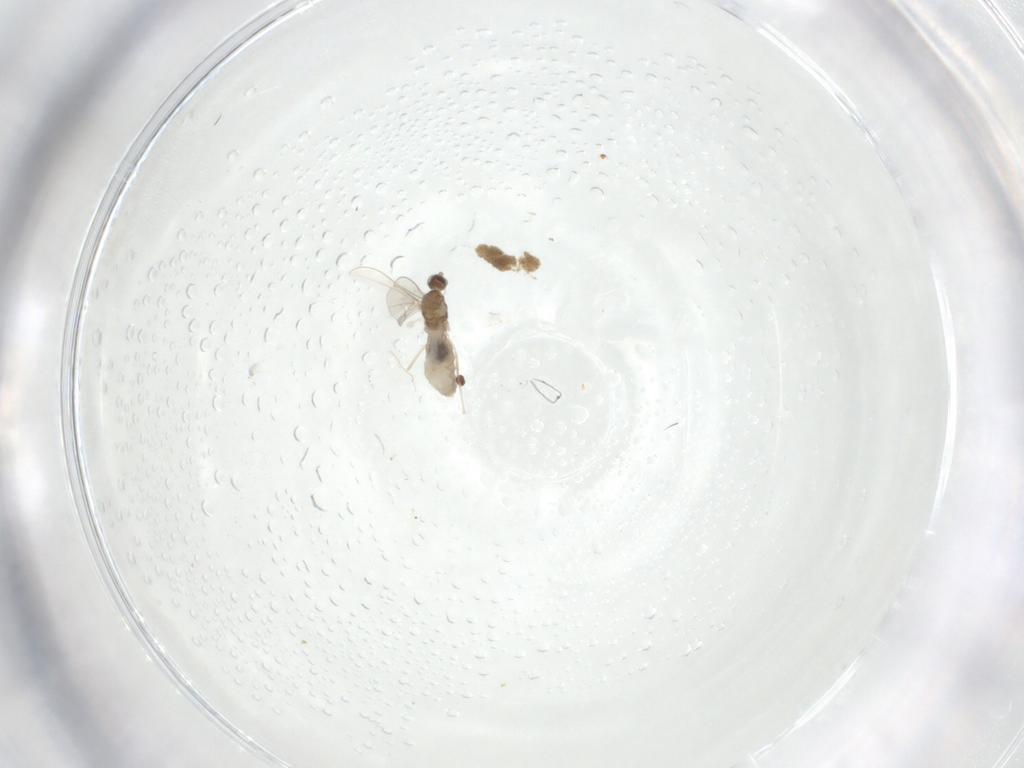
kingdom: Animalia
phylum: Arthropoda
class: Insecta
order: Diptera
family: Cecidomyiidae
